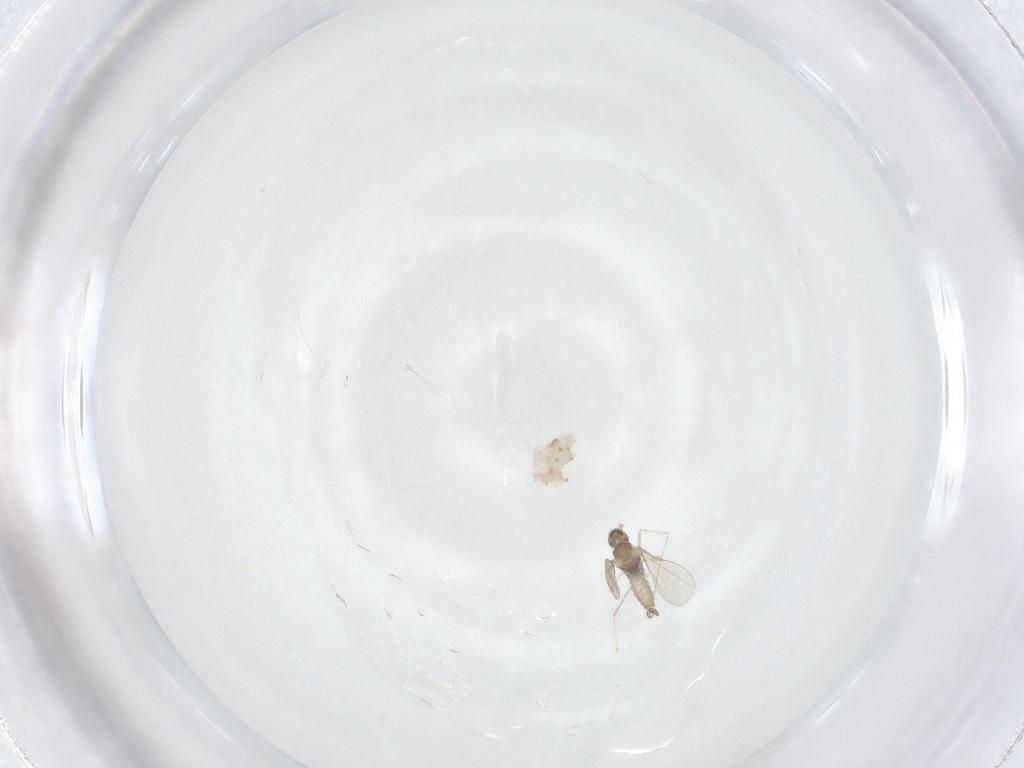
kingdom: Animalia
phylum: Arthropoda
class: Insecta
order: Diptera
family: Cecidomyiidae
